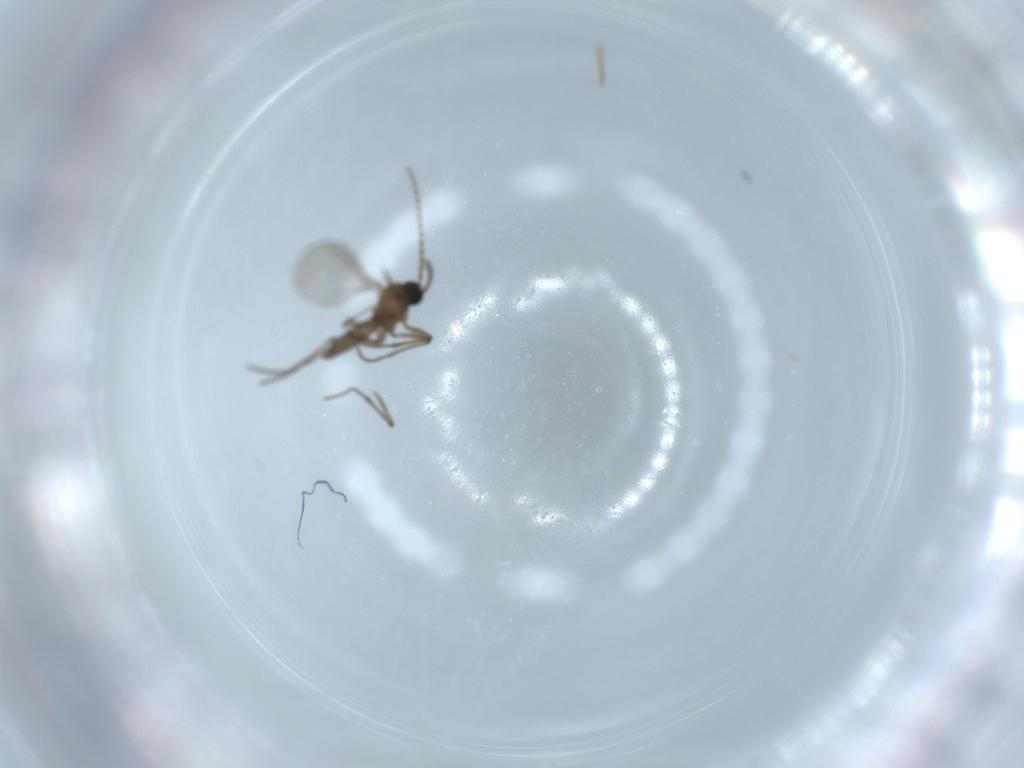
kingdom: Animalia
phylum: Arthropoda
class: Insecta
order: Diptera
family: Sciaridae
